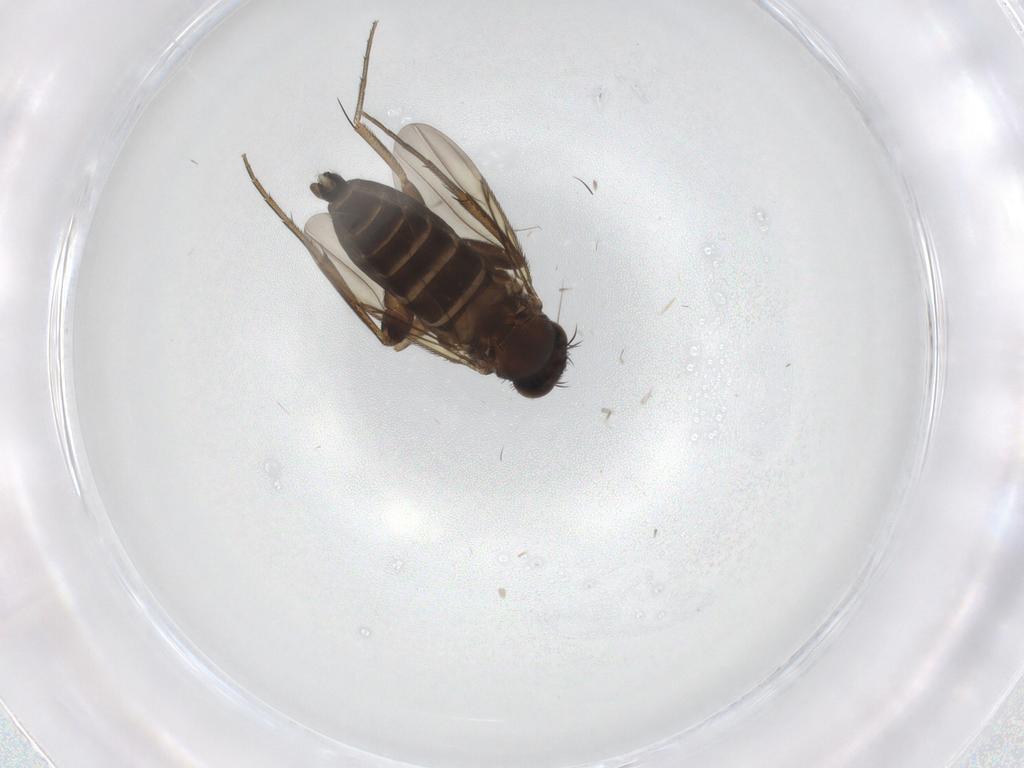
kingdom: Animalia
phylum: Arthropoda
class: Insecta
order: Diptera
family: Phoridae
